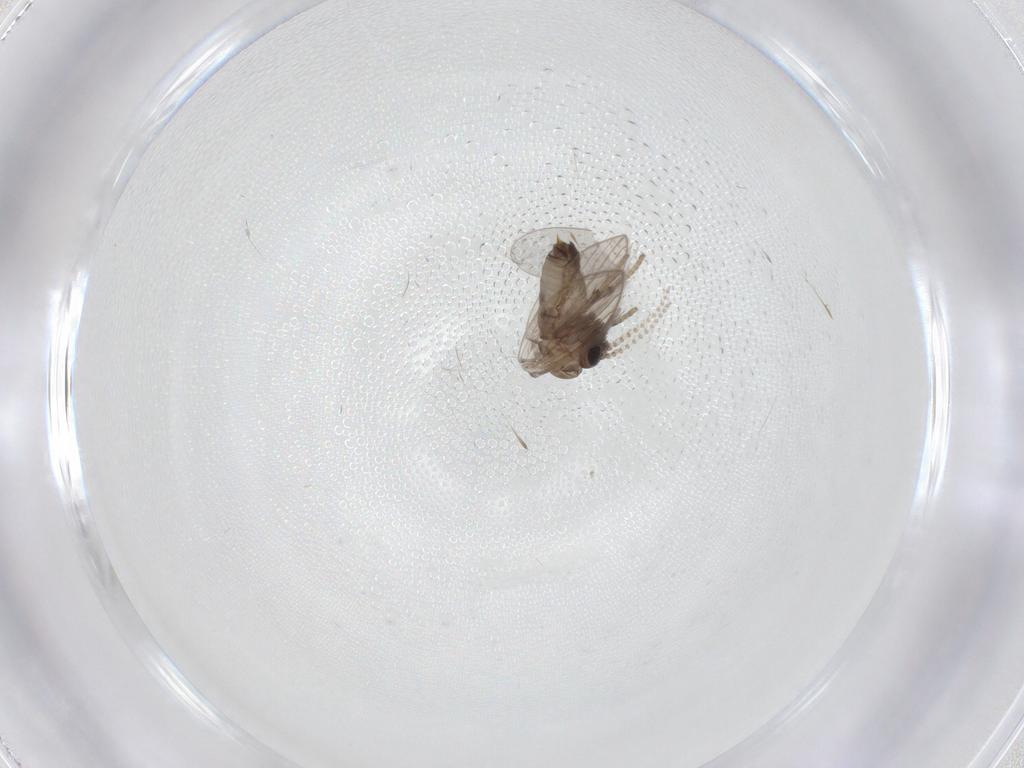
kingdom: Animalia
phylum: Arthropoda
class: Insecta
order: Diptera
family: Psychodidae
